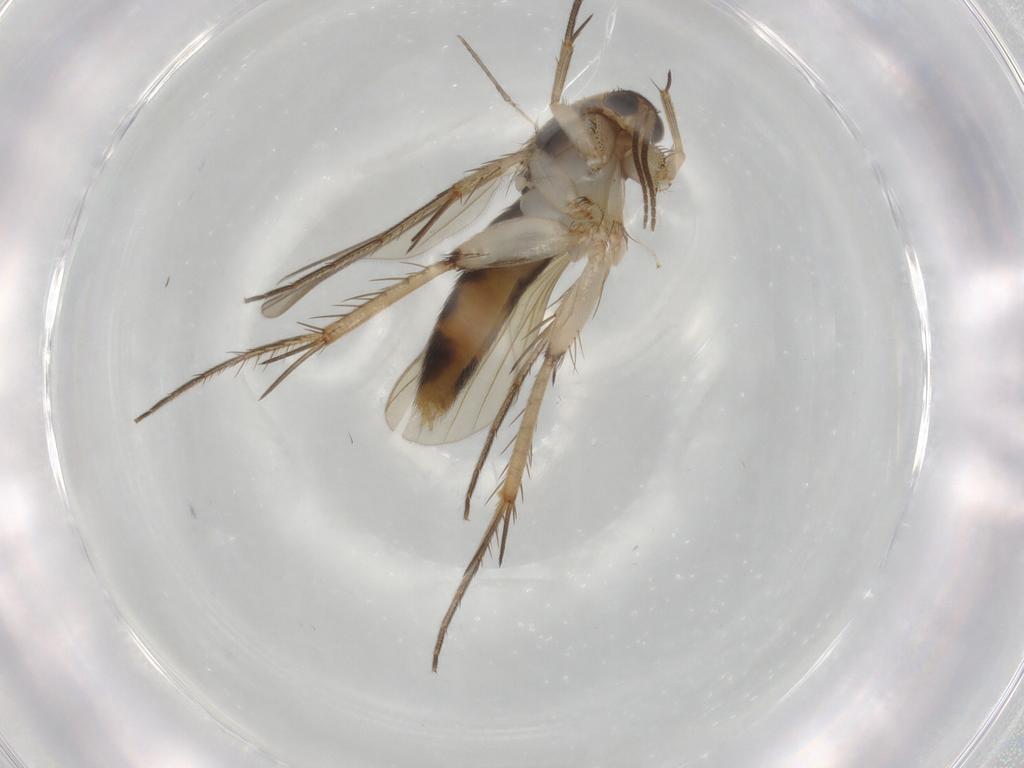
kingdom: Animalia
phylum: Arthropoda
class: Insecta
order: Diptera
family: Mycetophilidae
